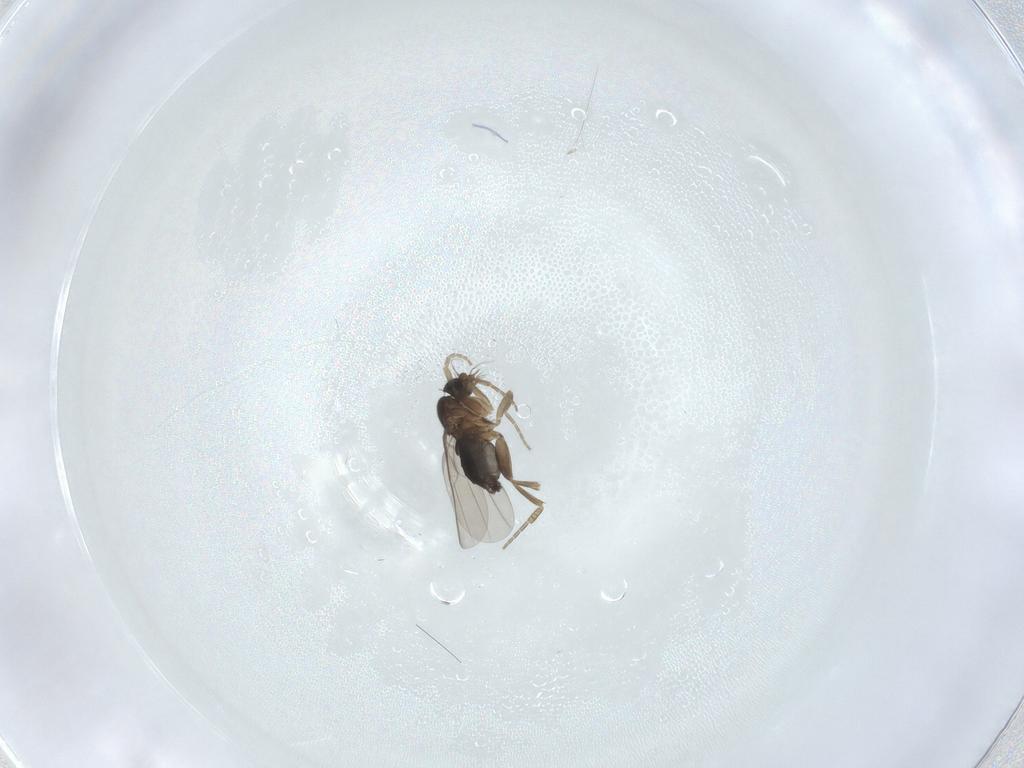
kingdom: Animalia
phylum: Arthropoda
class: Insecta
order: Diptera
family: Phoridae
